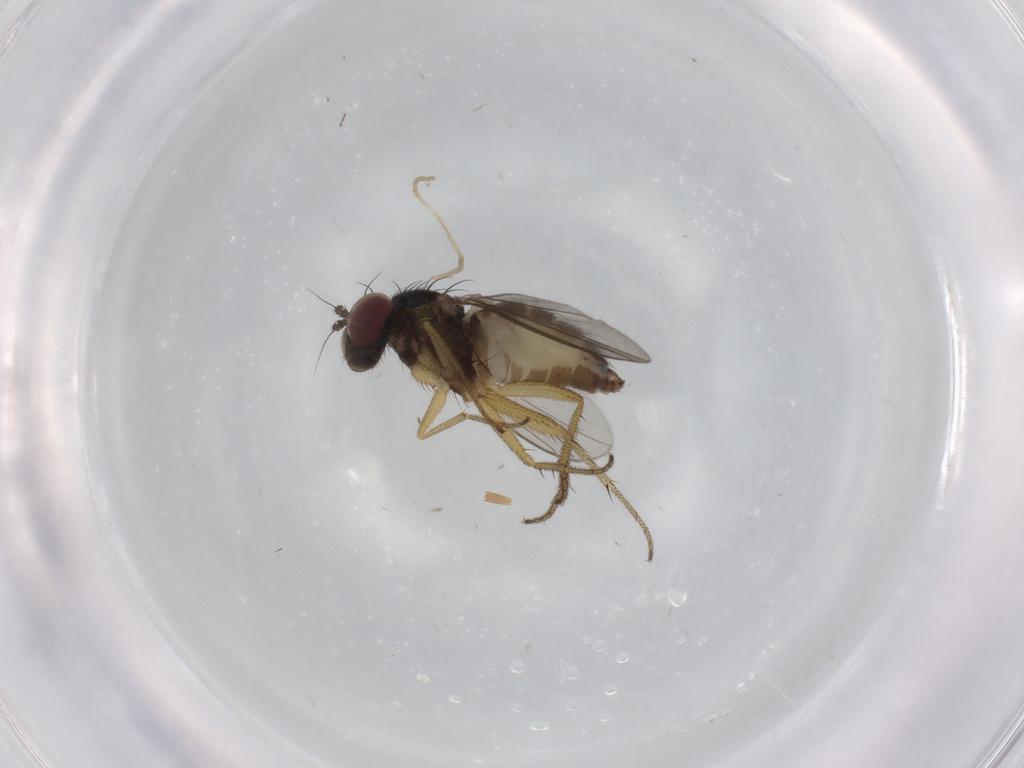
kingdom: Animalia
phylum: Arthropoda
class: Insecta
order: Diptera
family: Dolichopodidae
